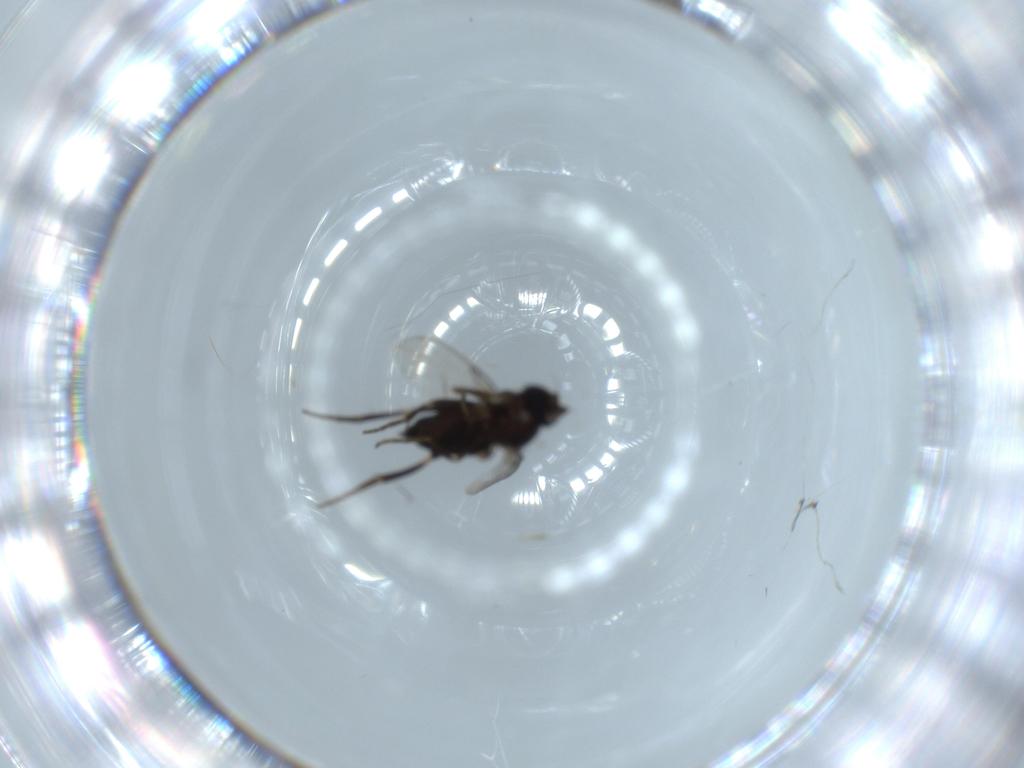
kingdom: Animalia
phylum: Arthropoda
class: Insecta
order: Diptera
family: Phoridae
